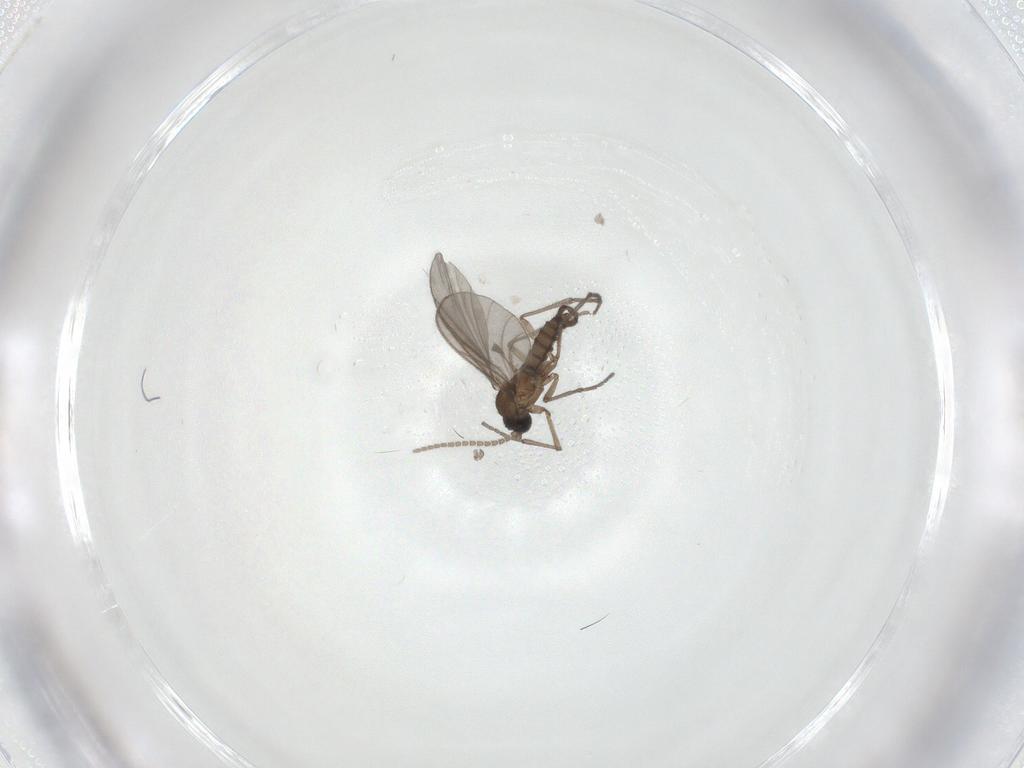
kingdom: Animalia
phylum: Arthropoda
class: Insecta
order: Diptera
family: Sciaridae
